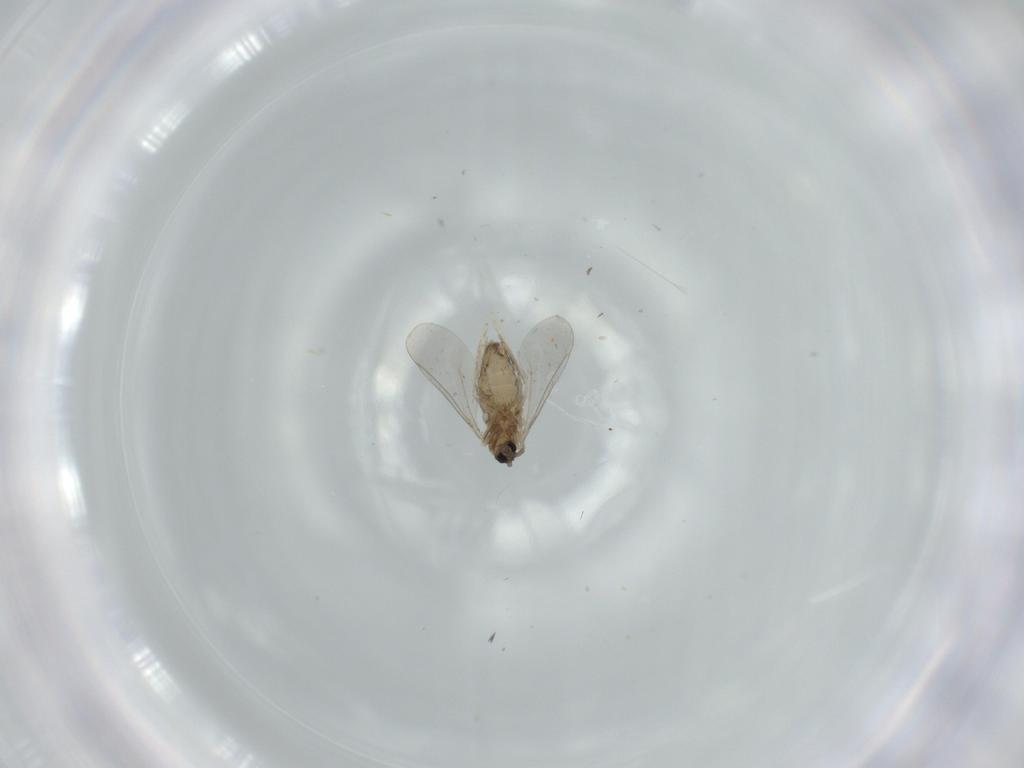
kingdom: Animalia
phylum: Arthropoda
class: Insecta
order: Diptera
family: Cecidomyiidae
